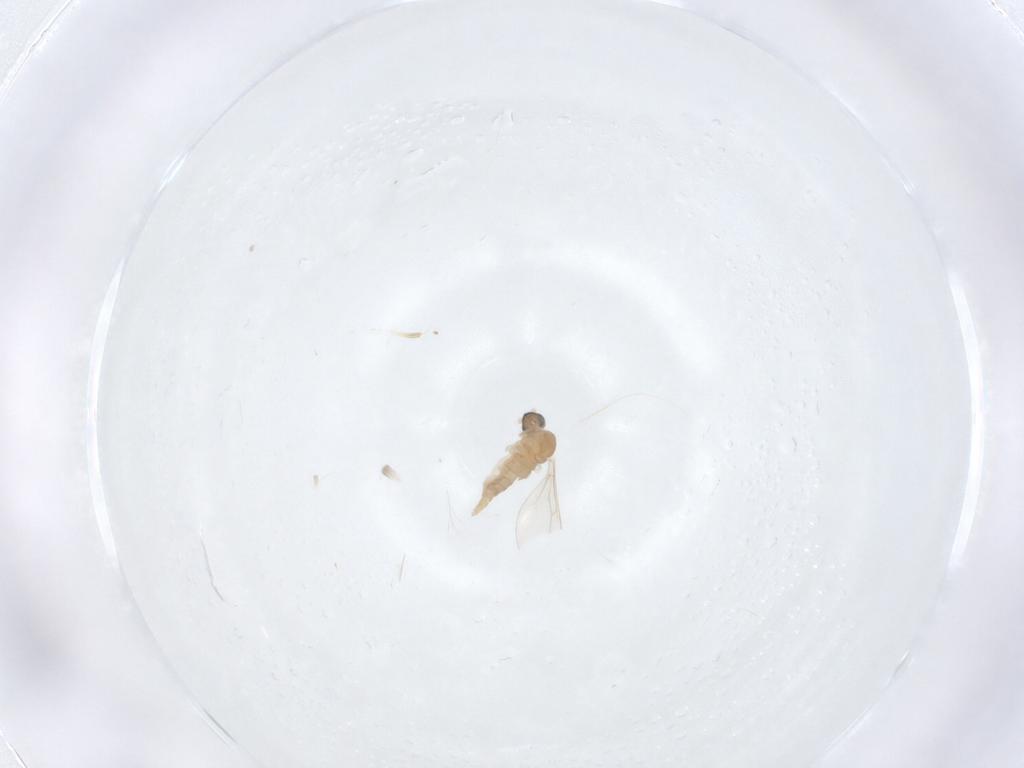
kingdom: Animalia
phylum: Arthropoda
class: Insecta
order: Diptera
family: Cecidomyiidae
